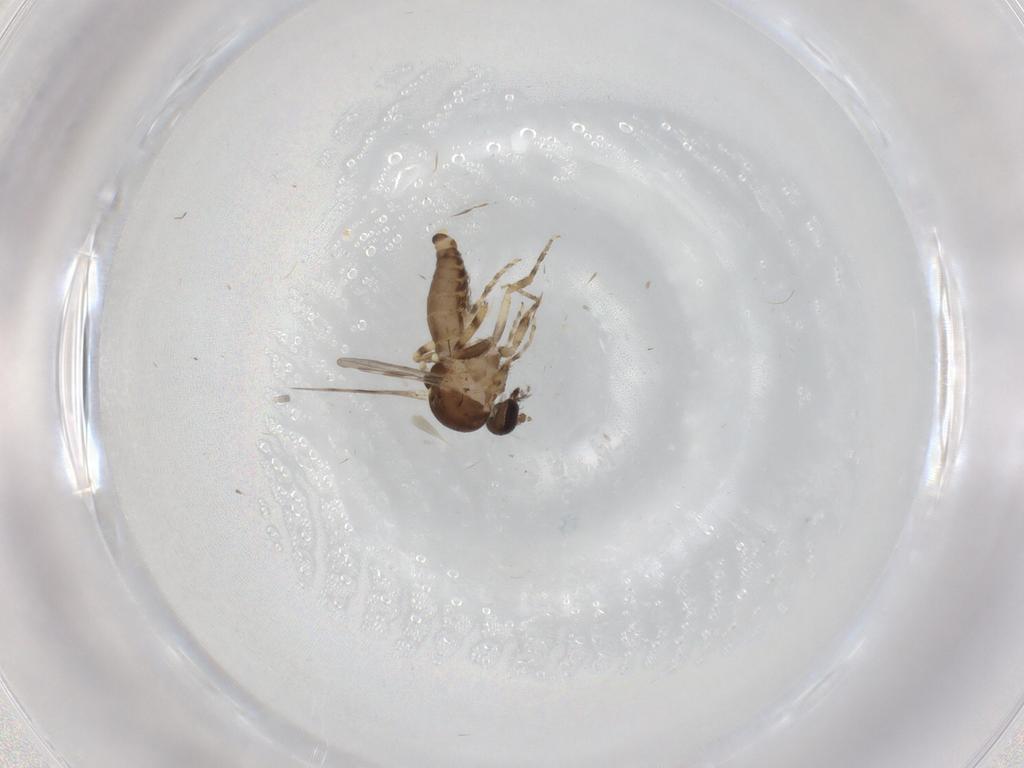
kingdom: Animalia
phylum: Arthropoda
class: Insecta
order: Diptera
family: Ceratopogonidae
